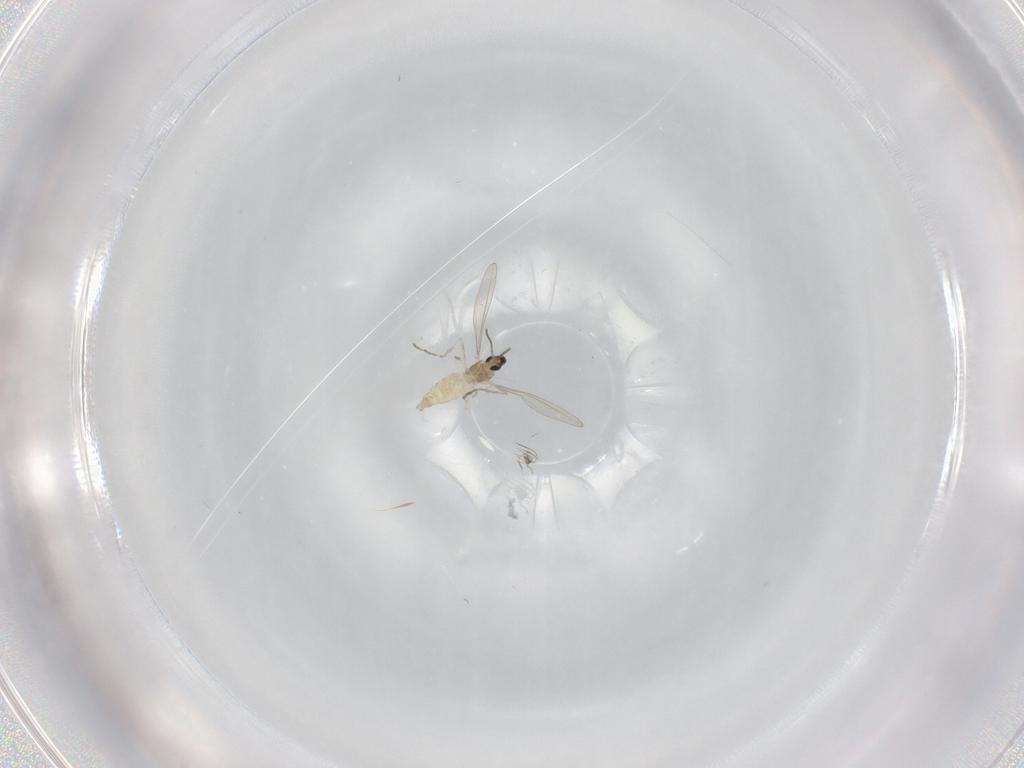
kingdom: Animalia
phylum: Arthropoda
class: Insecta
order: Diptera
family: Cecidomyiidae
